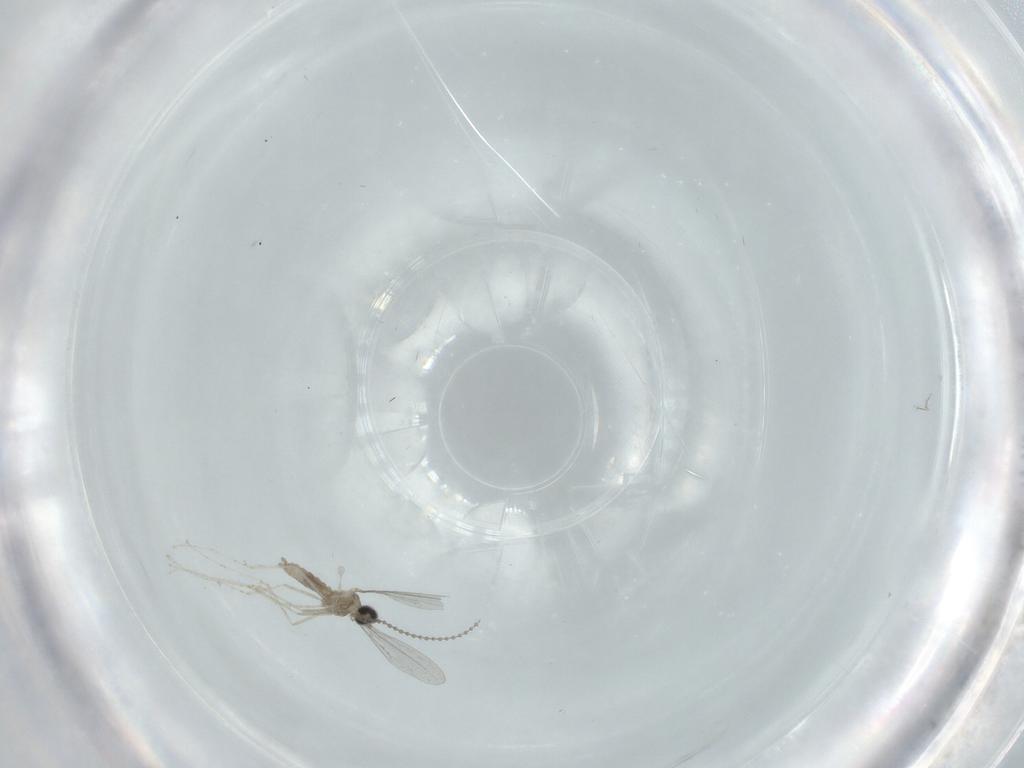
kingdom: Animalia
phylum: Arthropoda
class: Insecta
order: Diptera
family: Cecidomyiidae
